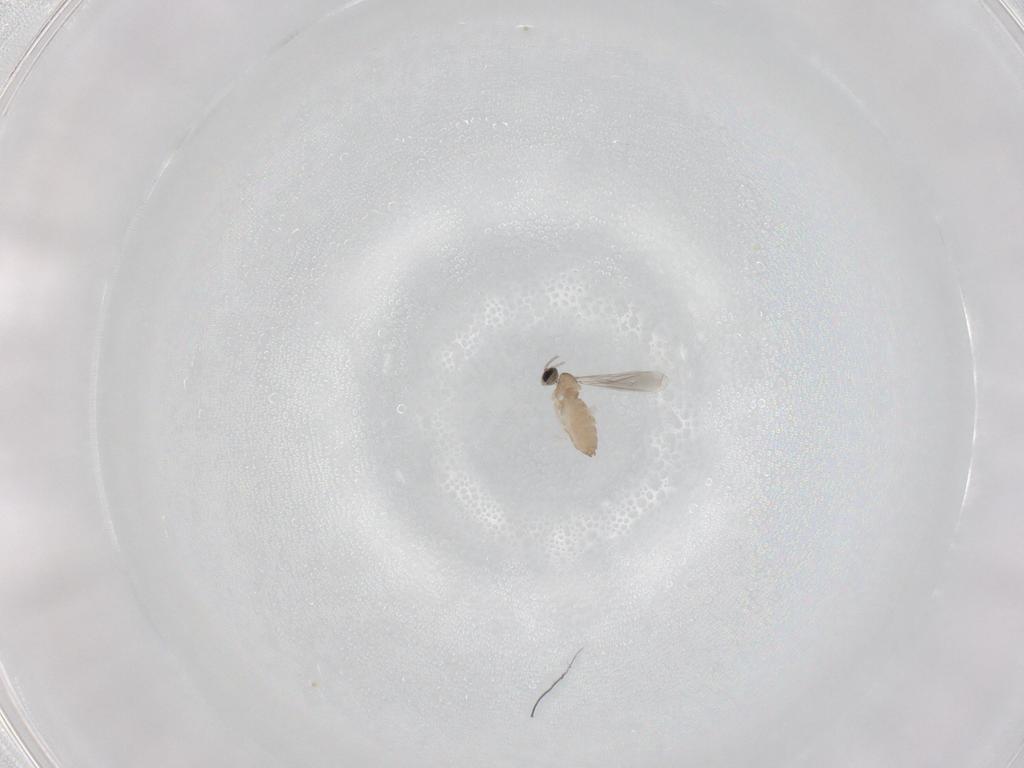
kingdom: Animalia
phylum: Arthropoda
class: Insecta
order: Diptera
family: Cecidomyiidae
